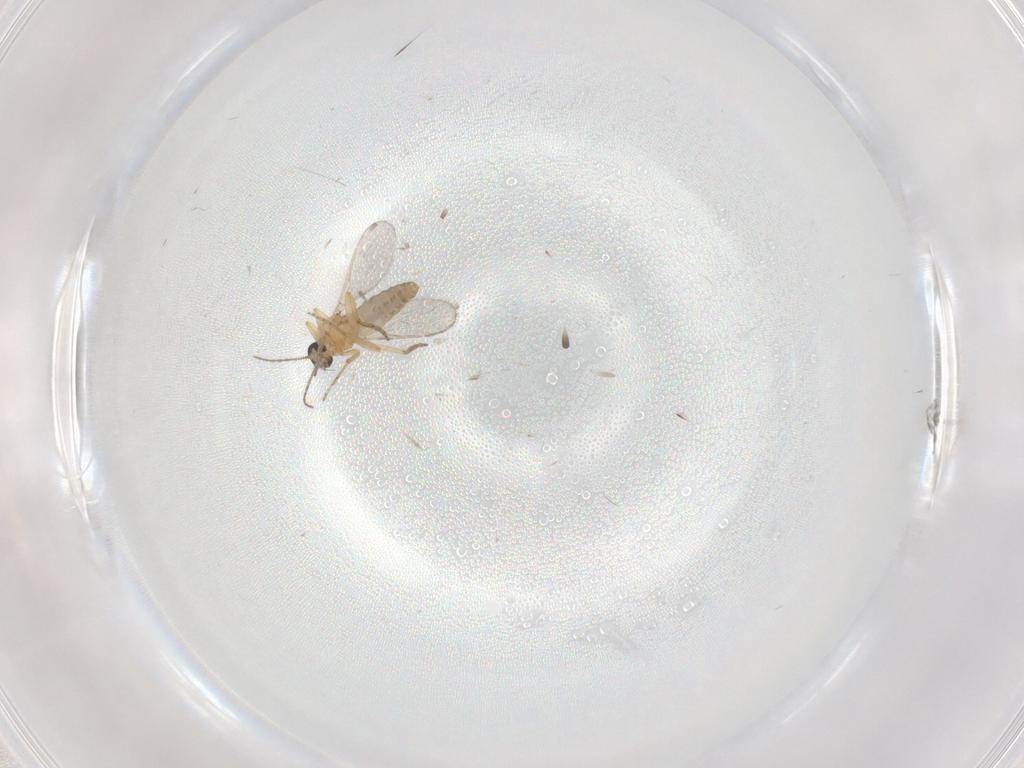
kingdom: Animalia
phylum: Arthropoda
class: Insecta
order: Diptera
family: Ceratopogonidae
